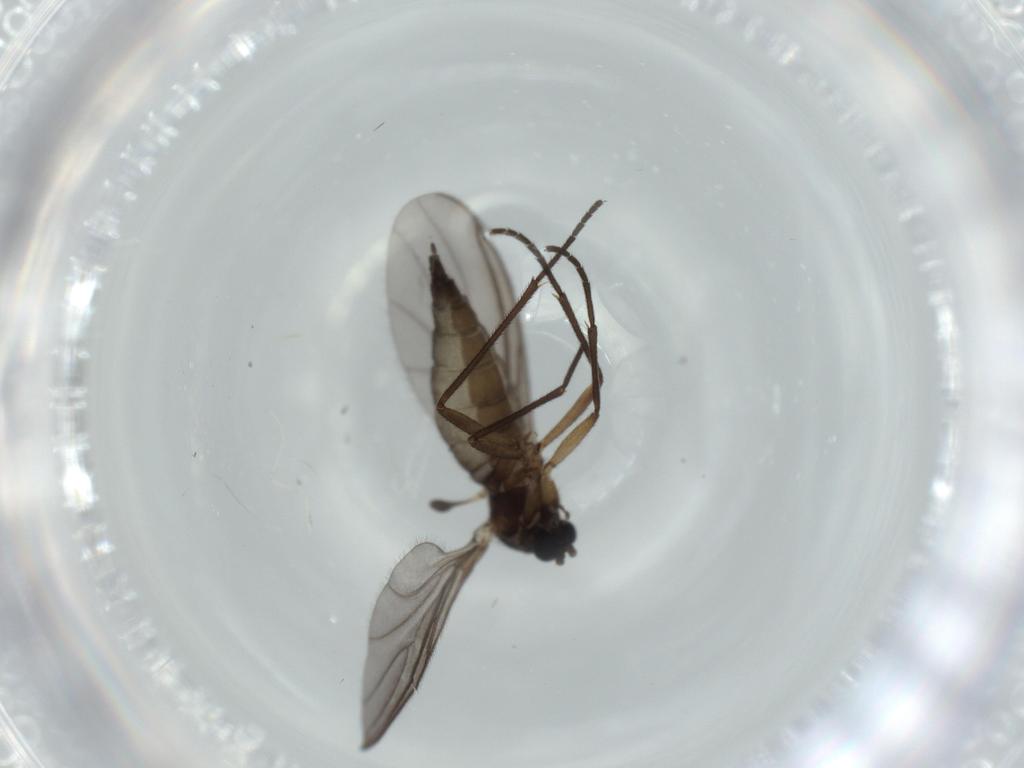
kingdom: Animalia
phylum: Arthropoda
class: Insecta
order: Diptera
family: Sciaridae
